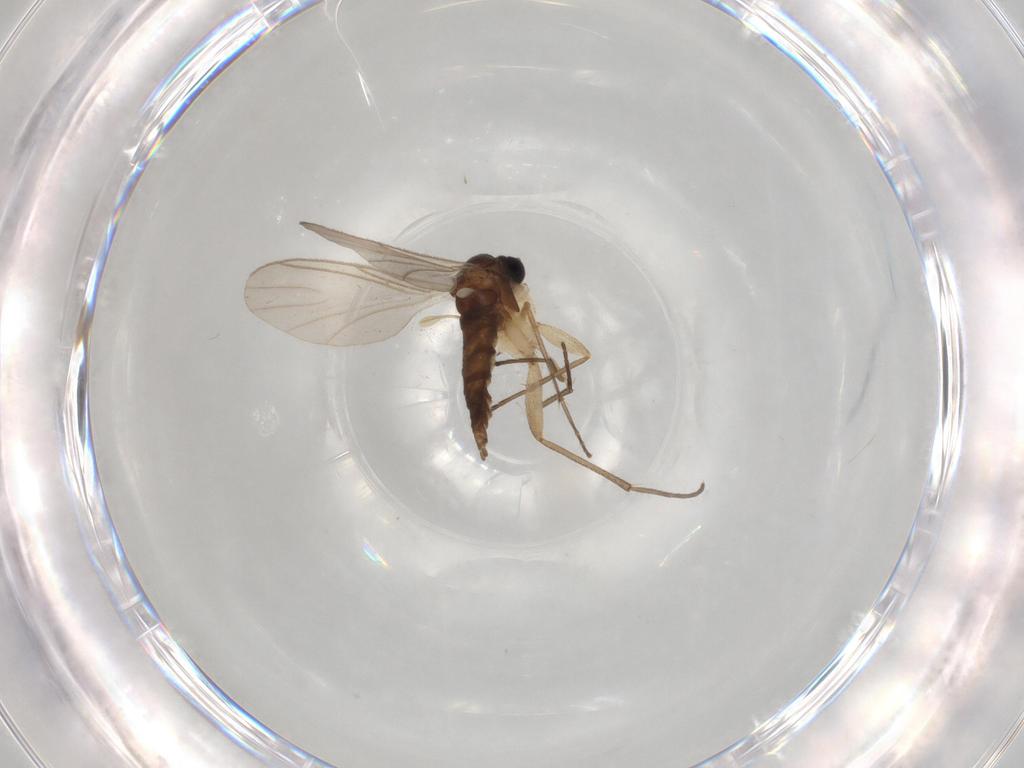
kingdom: Animalia
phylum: Arthropoda
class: Insecta
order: Diptera
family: Sciaridae
